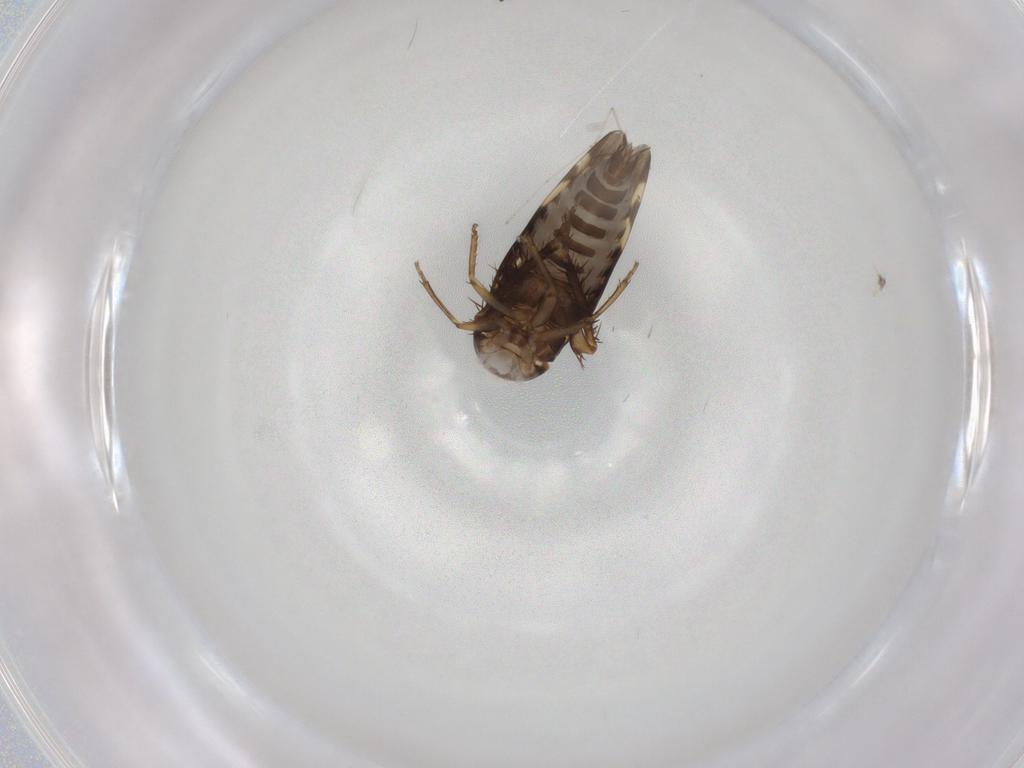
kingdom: Animalia
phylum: Arthropoda
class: Insecta
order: Hemiptera
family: Cicadellidae
